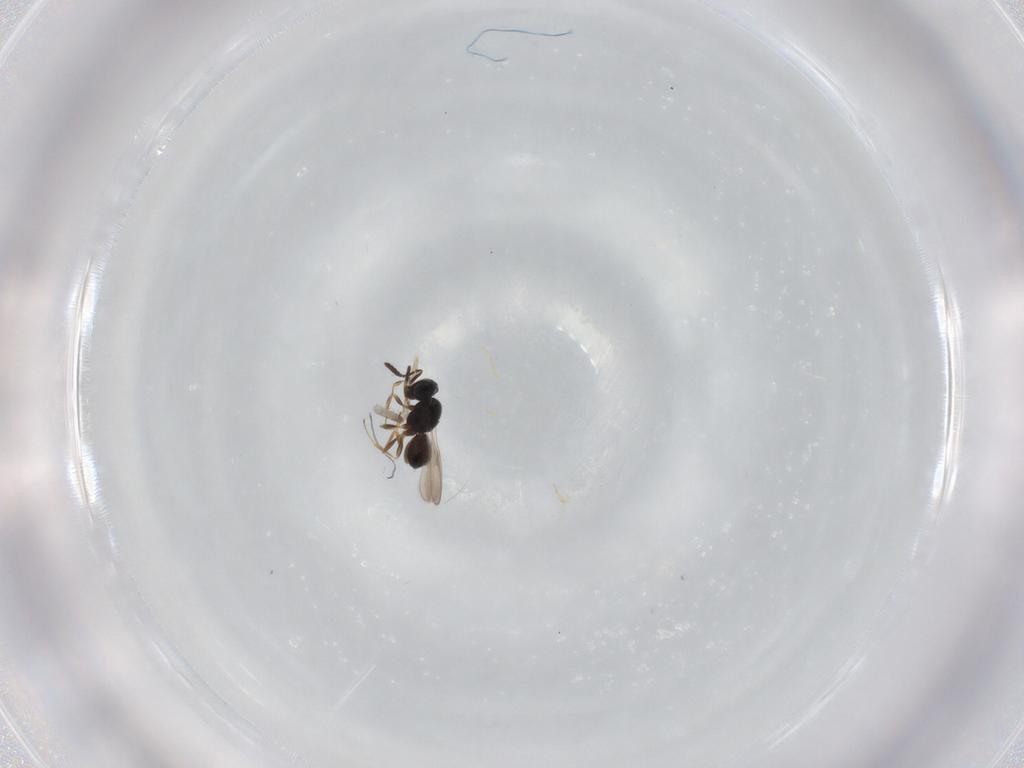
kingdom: Animalia
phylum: Arthropoda
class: Insecta
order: Hymenoptera
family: Scelionidae
